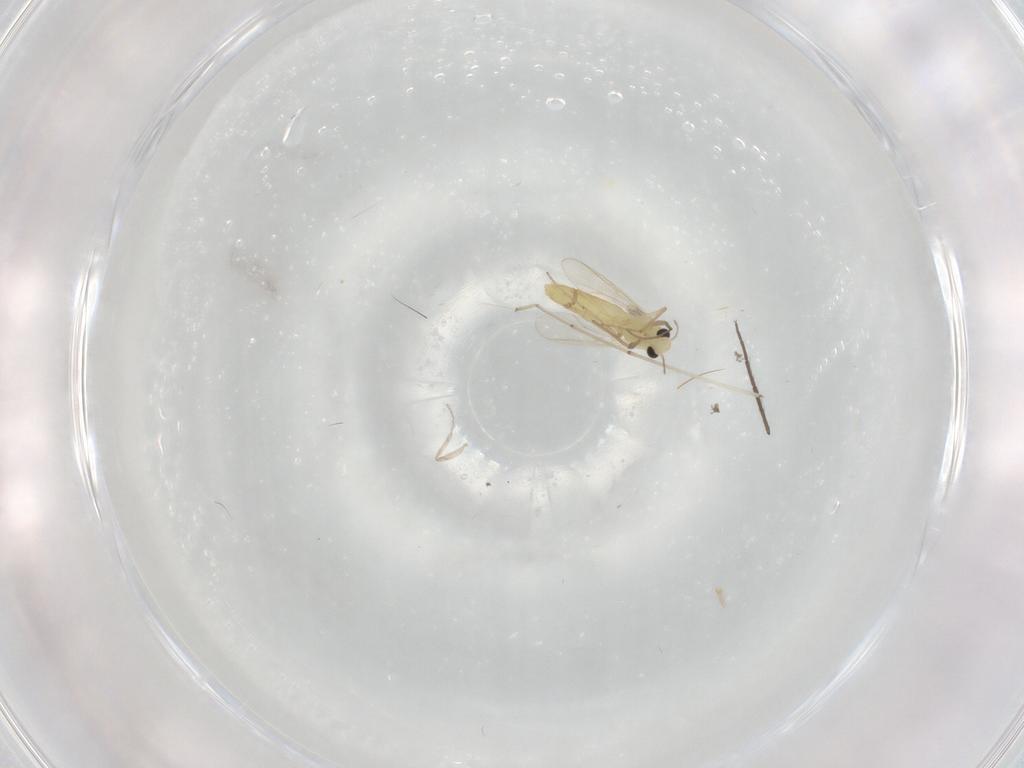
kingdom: Animalia
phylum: Arthropoda
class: Insecta
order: Diptera
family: Chironomidae
